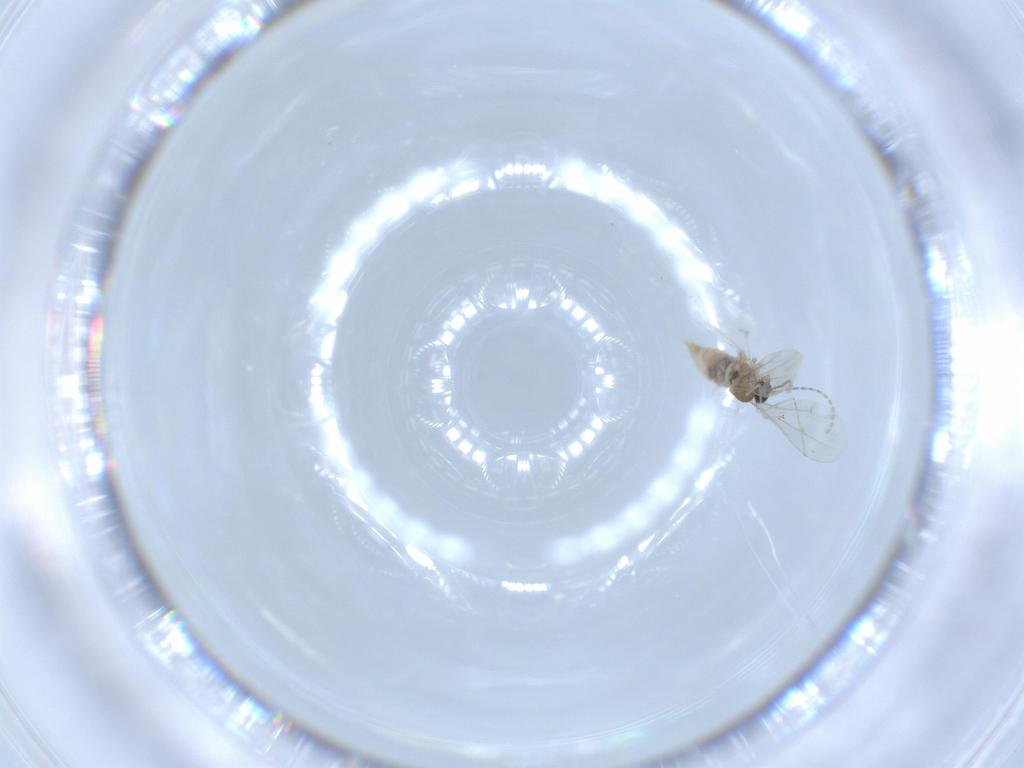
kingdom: Animalia
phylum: Arthropoda
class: Insecta
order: Diptera
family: Cecidomyiidae
